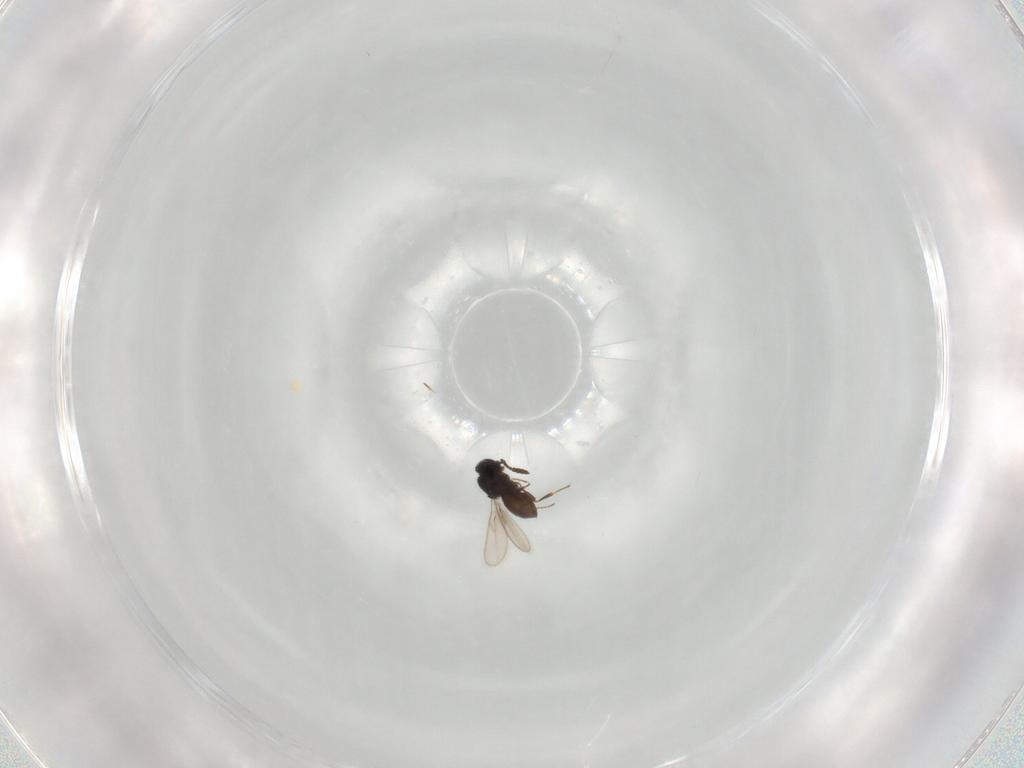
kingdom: Animalia
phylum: Arthropoda
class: Insecta
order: Hymenoptera
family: Scelionidae
